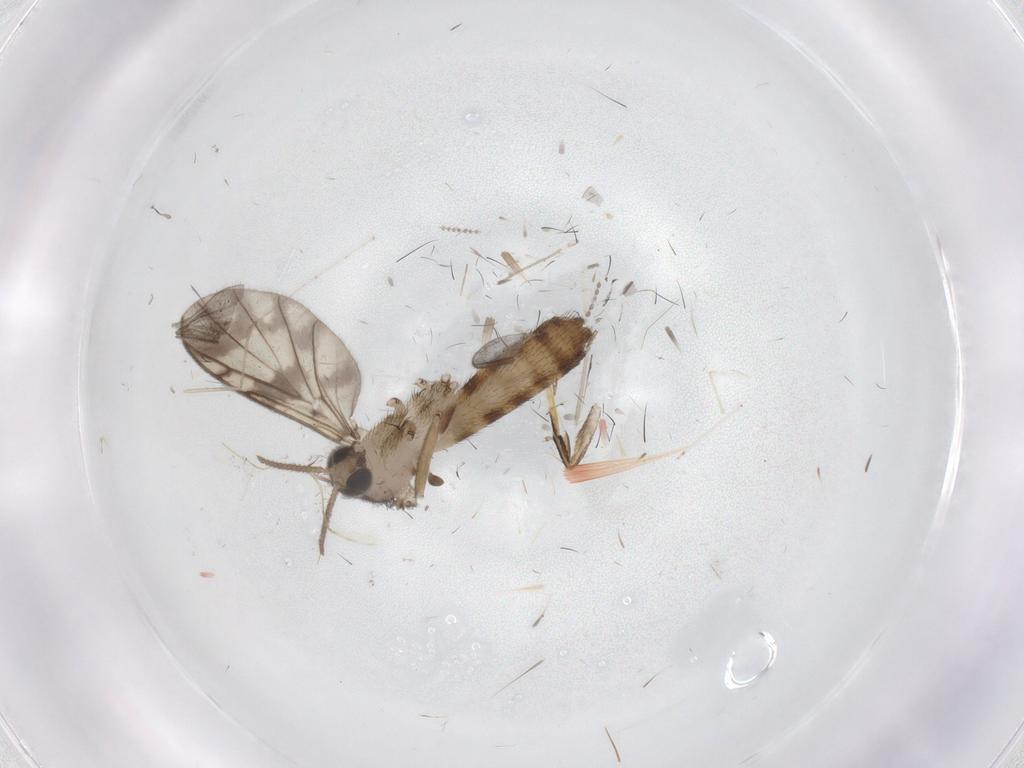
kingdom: Animalia
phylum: Arthropoda
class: Insecta
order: Diptera
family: Keroplatidae
